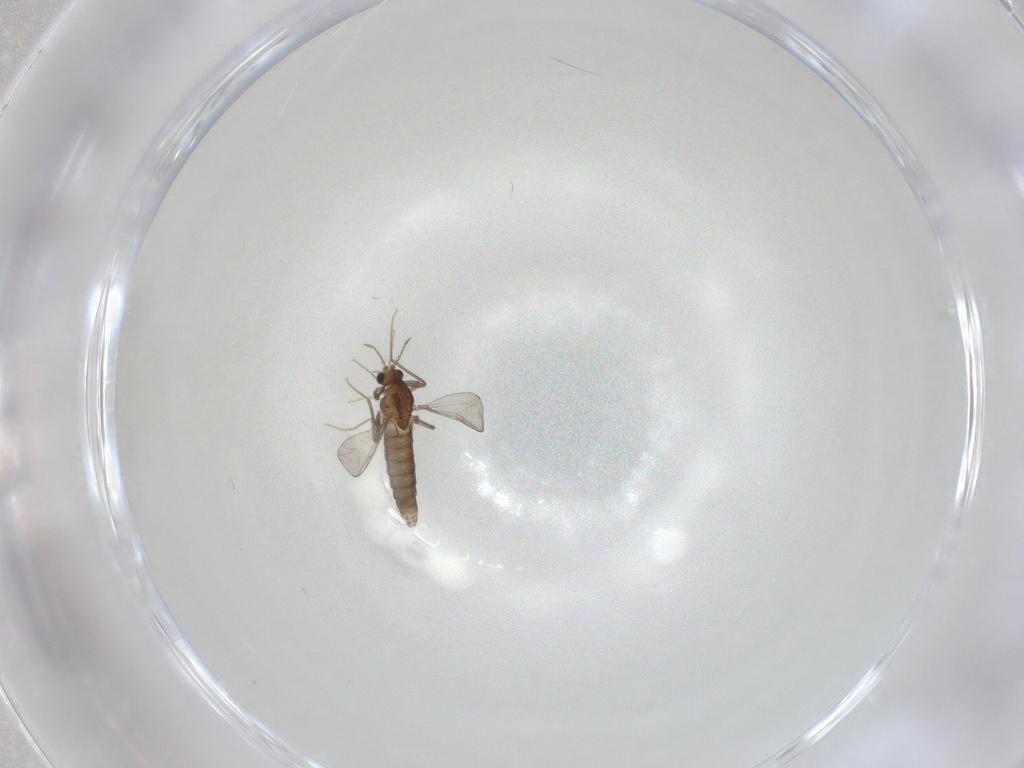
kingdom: Animalia
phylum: Arthropoda
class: Insecta
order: Diptera
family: Chironomidae
